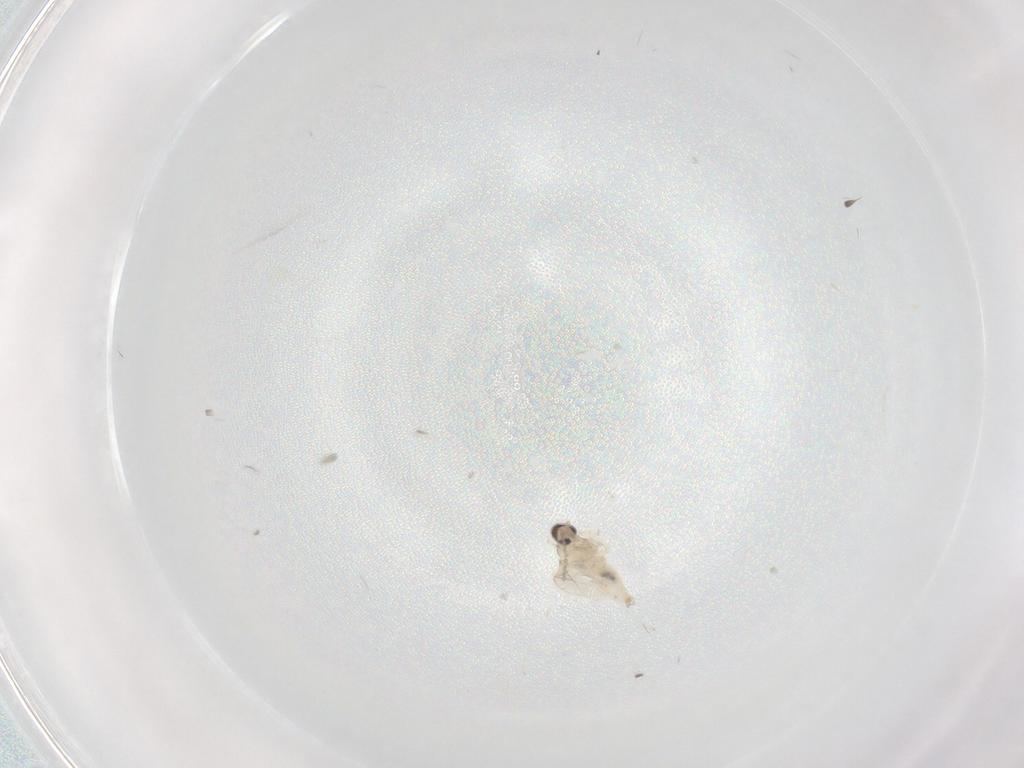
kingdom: Animalia
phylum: Arthropoda
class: Insecta
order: Diptera
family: Cecidomyiidae
